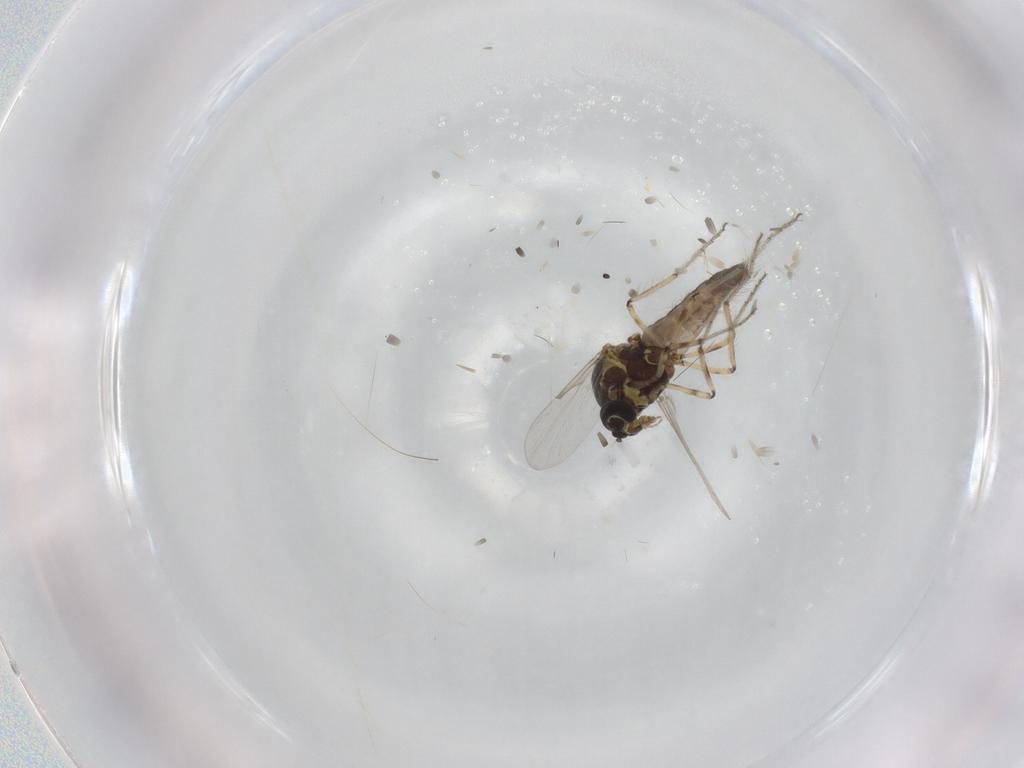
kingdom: Animalia
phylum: Arthropoda
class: Insecta
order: Diptera
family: Ceratopogonidae
